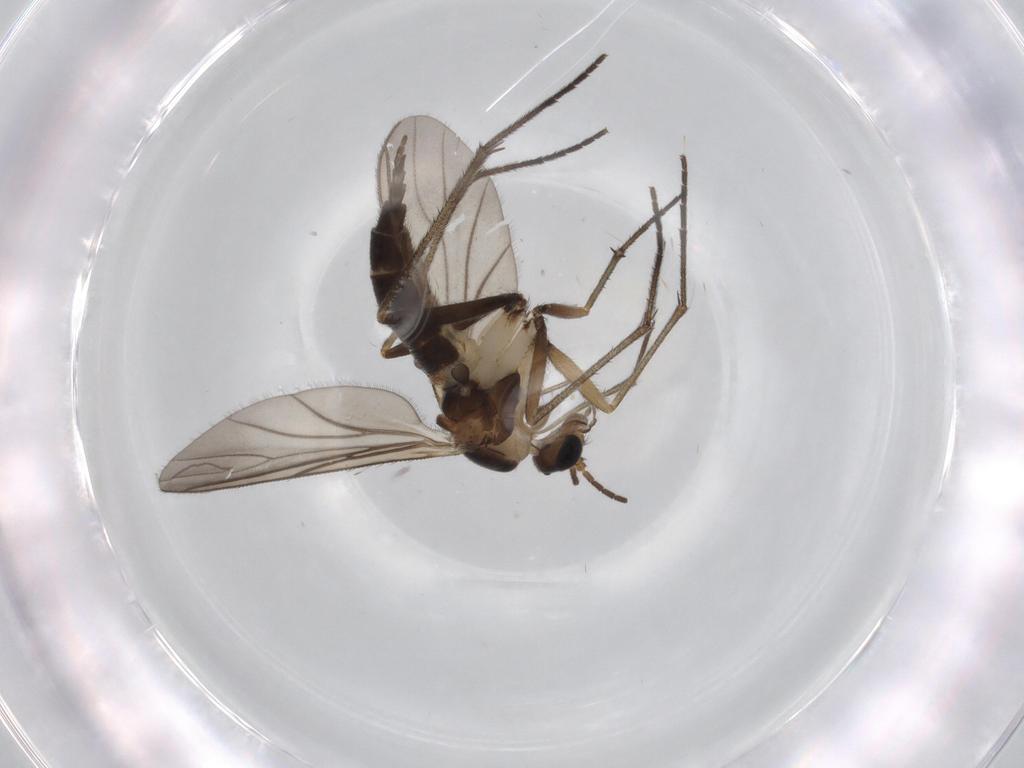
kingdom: Animalia
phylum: Arthropoda
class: Insecta
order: Diptera
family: Sciaridae
